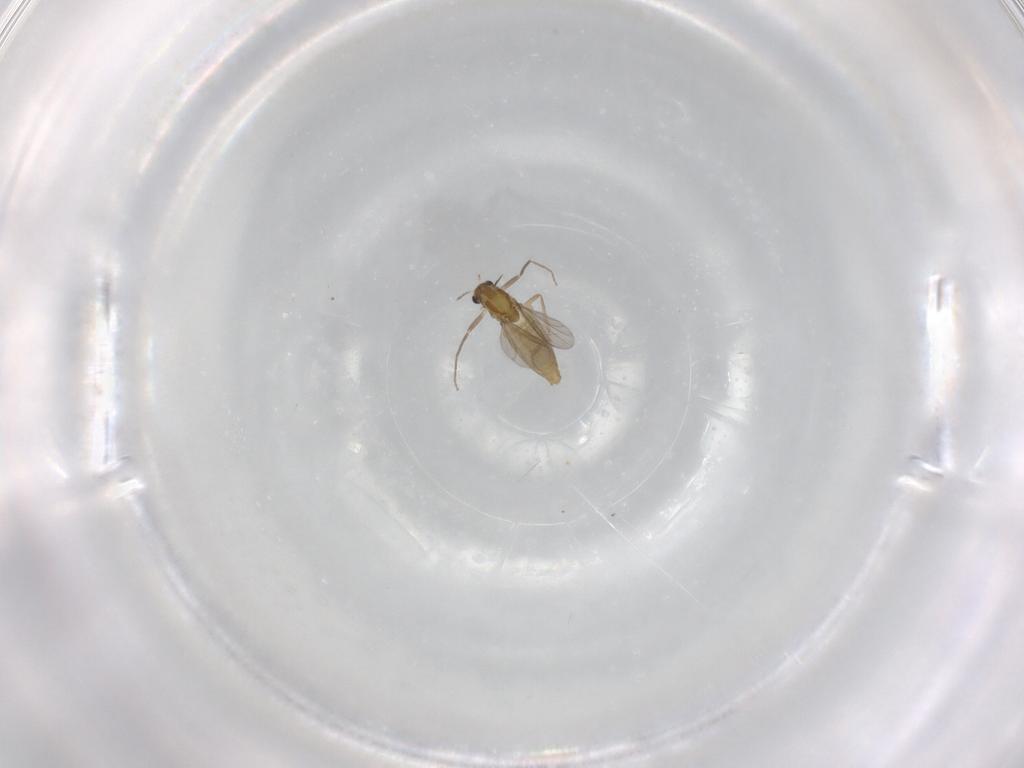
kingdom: Animalia
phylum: Arthropoda
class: Insecta
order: Diptera
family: Chironomidae
